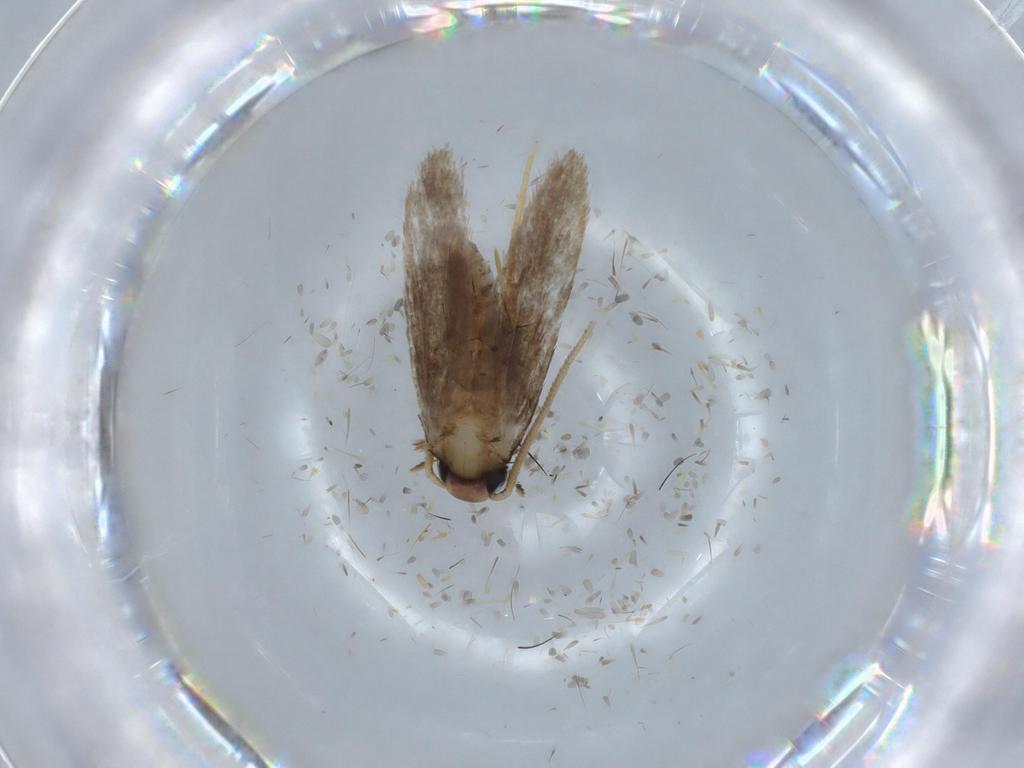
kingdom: Animalia
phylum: Arthropoda
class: Insecta
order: Lepidoptera
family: Coleophoridae
